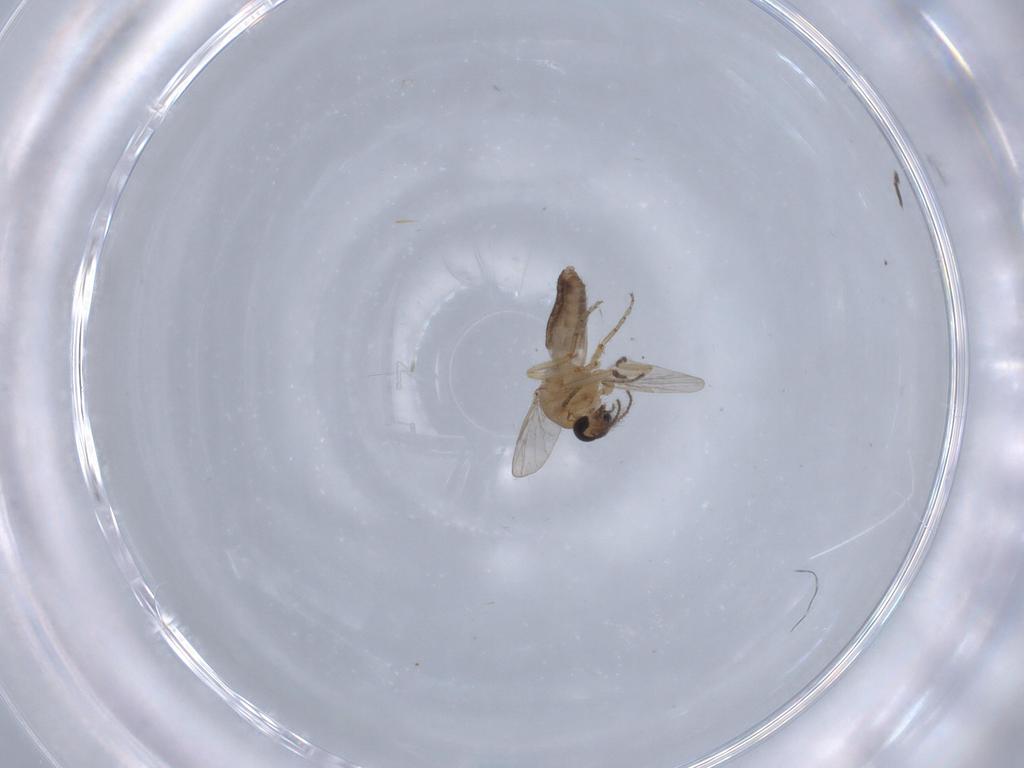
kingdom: Animalia
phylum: Arthropoda
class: Insecta
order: Diptera
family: Ceratopogonidae
